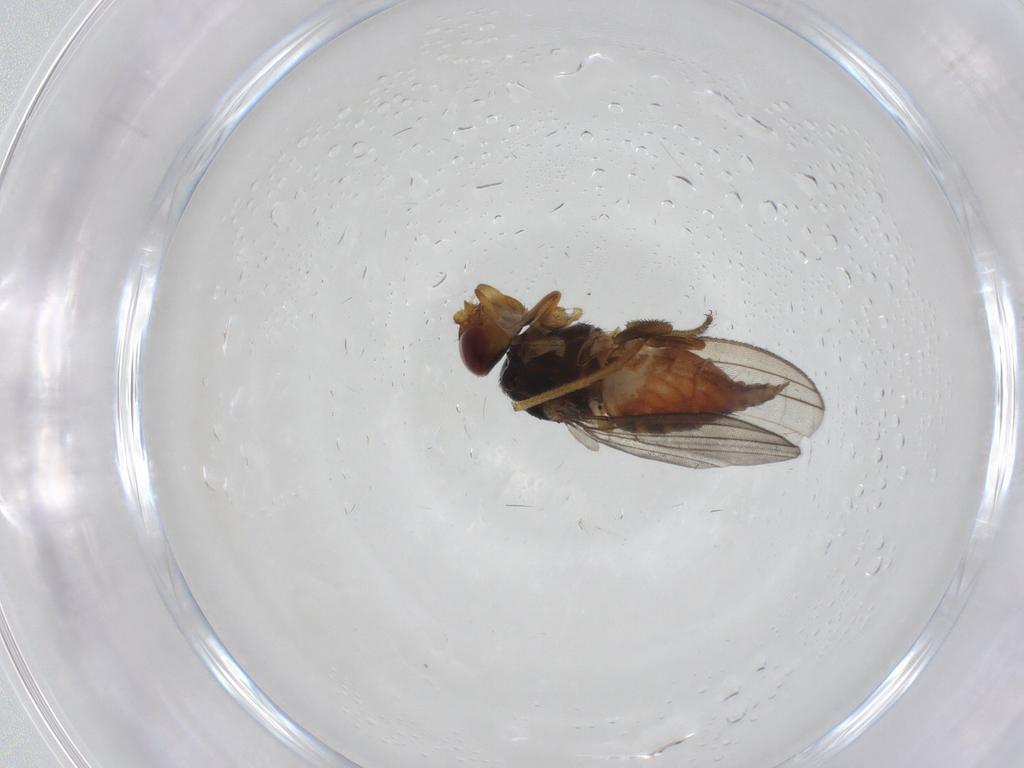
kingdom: Animalia
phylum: Arthropoda
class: Insecta
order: Diptera
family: Milichiidae
